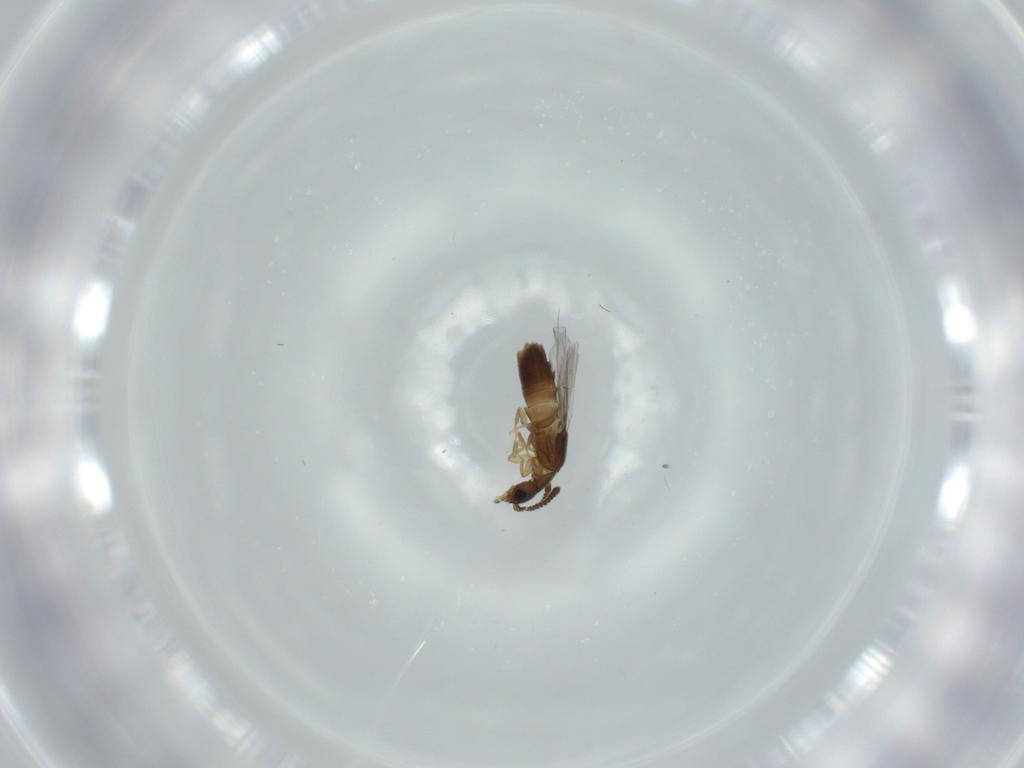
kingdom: Animalia
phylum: Arthropoda
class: Insecta
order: Coleoptera
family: Staphylinidae
